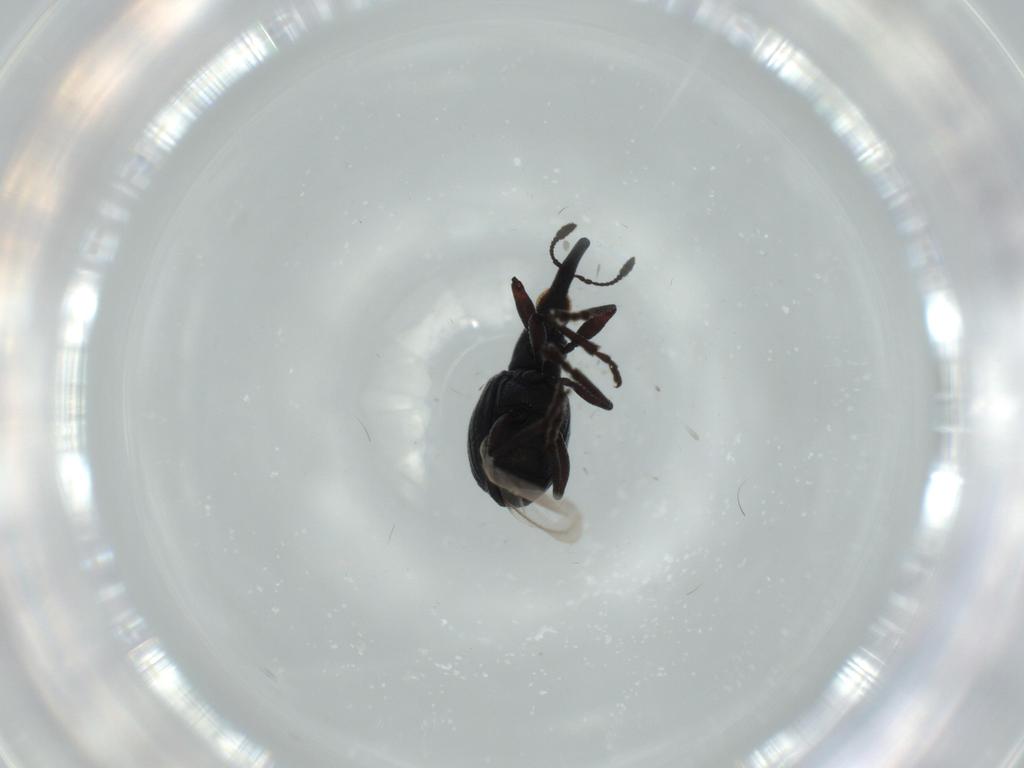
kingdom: Animalia
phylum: Arthropoda
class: Insecta
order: Coleoptera
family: Brentidae
